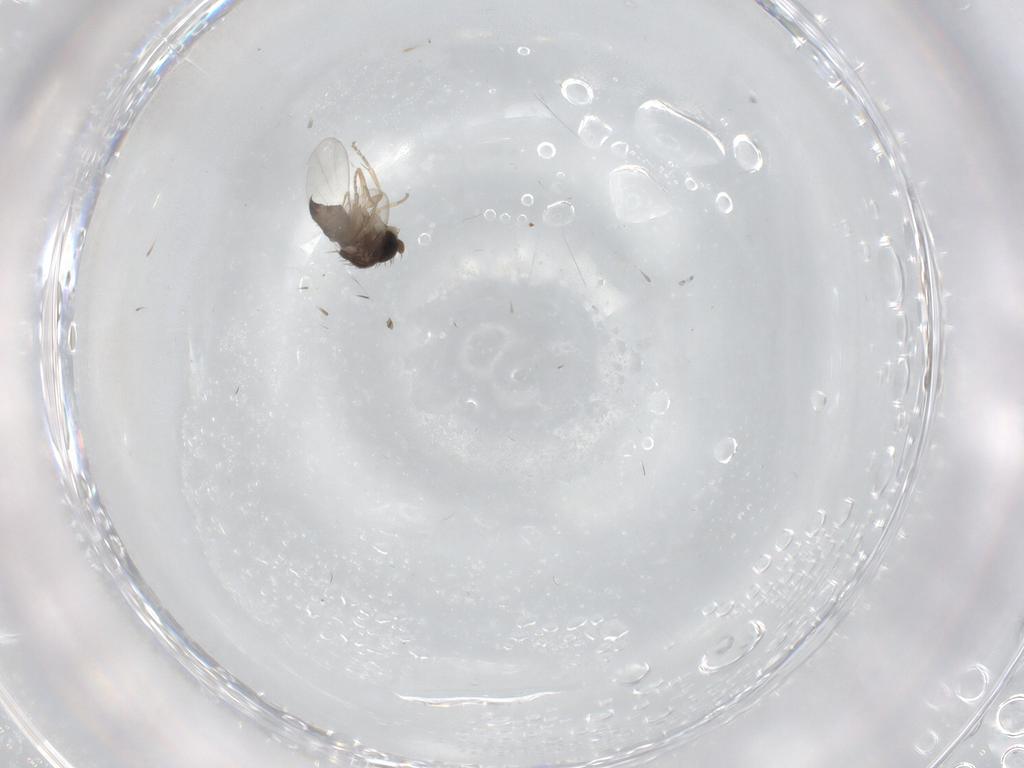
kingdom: Animalia
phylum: Arthropoda
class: Insecta
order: Diptera
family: Phoridae
